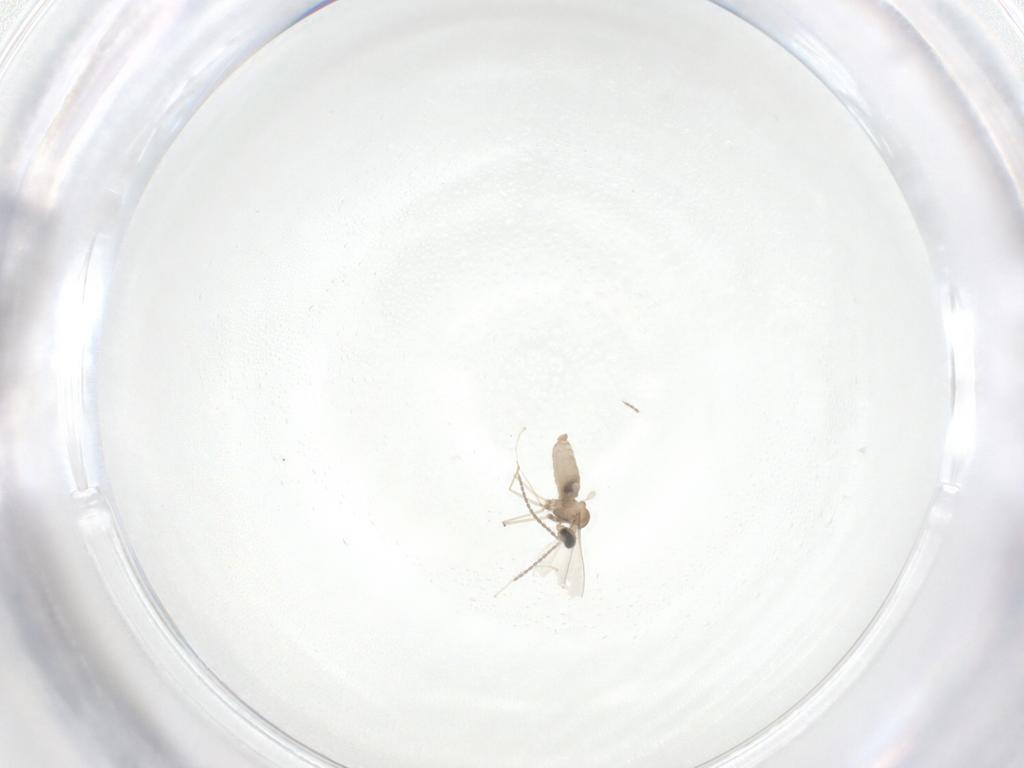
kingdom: Animalia
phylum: Arthropoda
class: Insecta
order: Diptera
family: Cecidomyiidae
